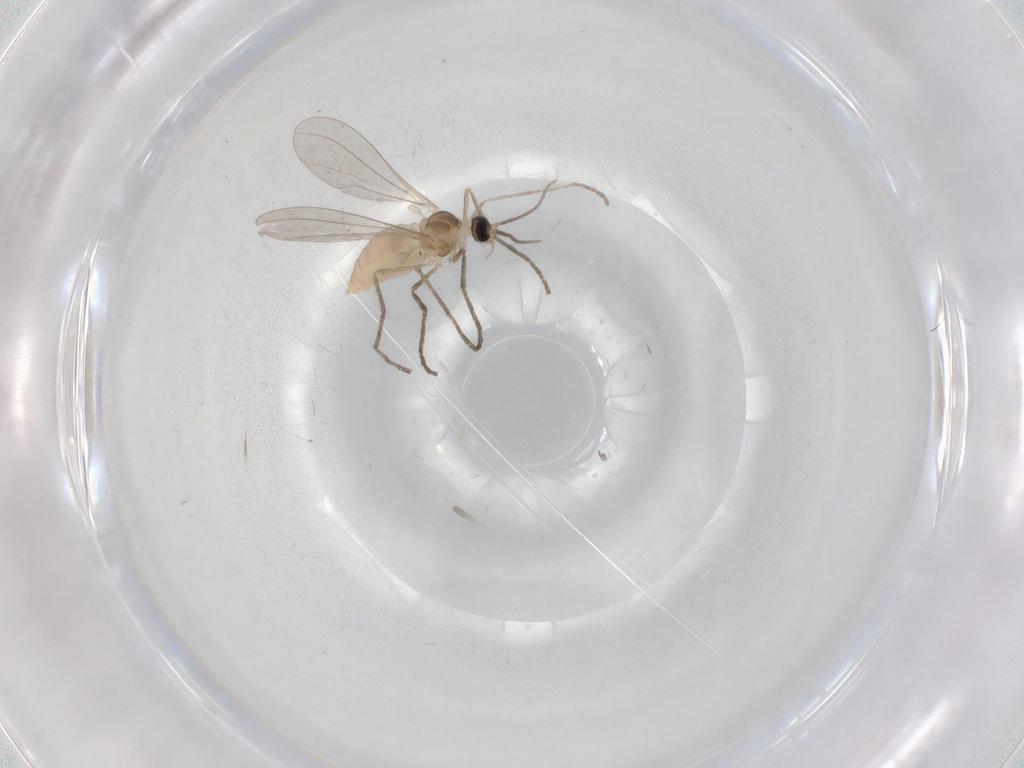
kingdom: Animalia
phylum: Arthropoda
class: Insecta
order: Diptera
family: Cecidomyiidae
